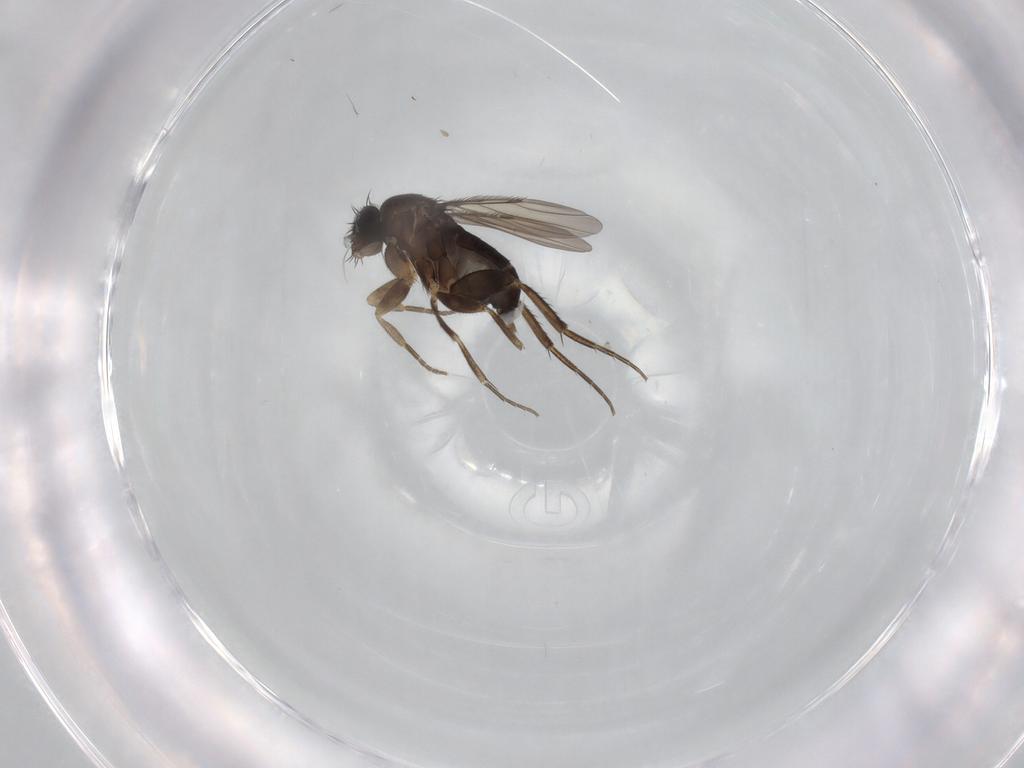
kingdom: Animalia
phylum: Arthropoda
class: Insecta
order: Diptera
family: Phoridae
